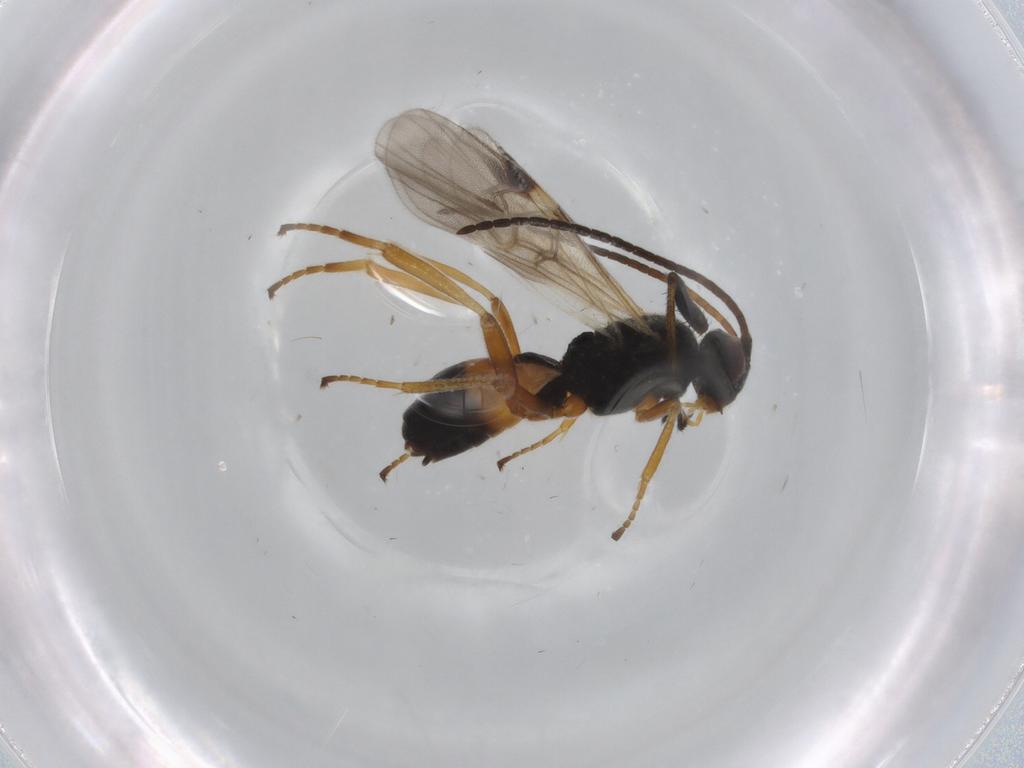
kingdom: Animalia
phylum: Arthropoda
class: Insecta
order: Hymenoptera
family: Braconidae
